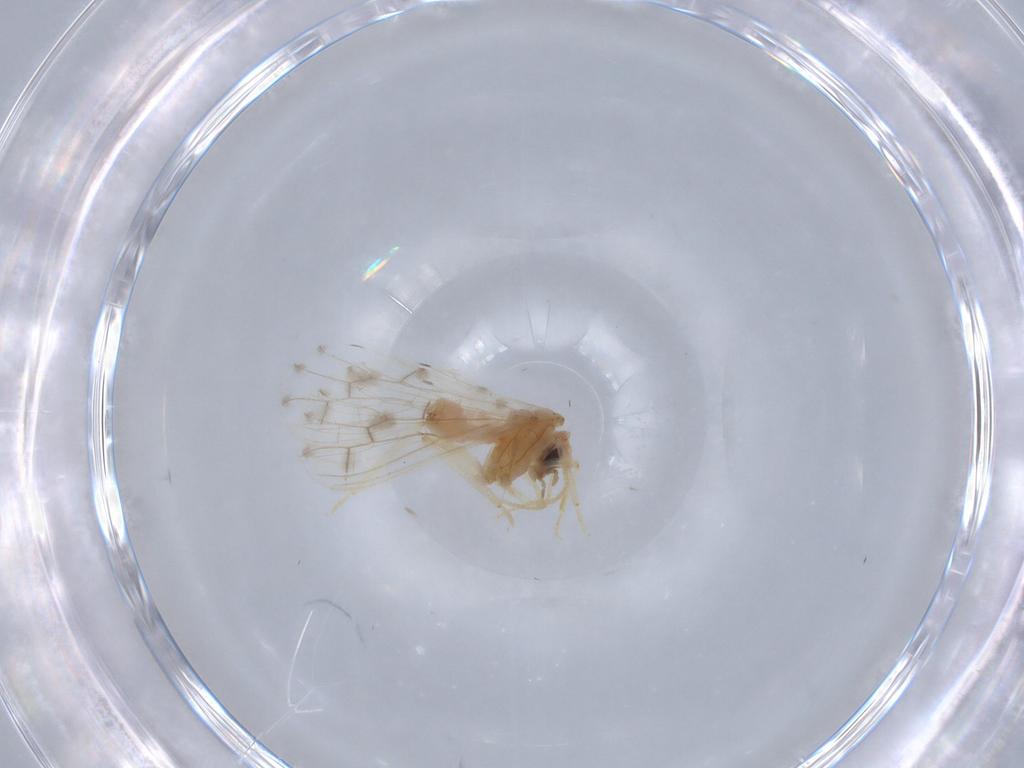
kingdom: Animalia
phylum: Arthropoda
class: Insecta
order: Neuroptera
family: Coniopterygidae
